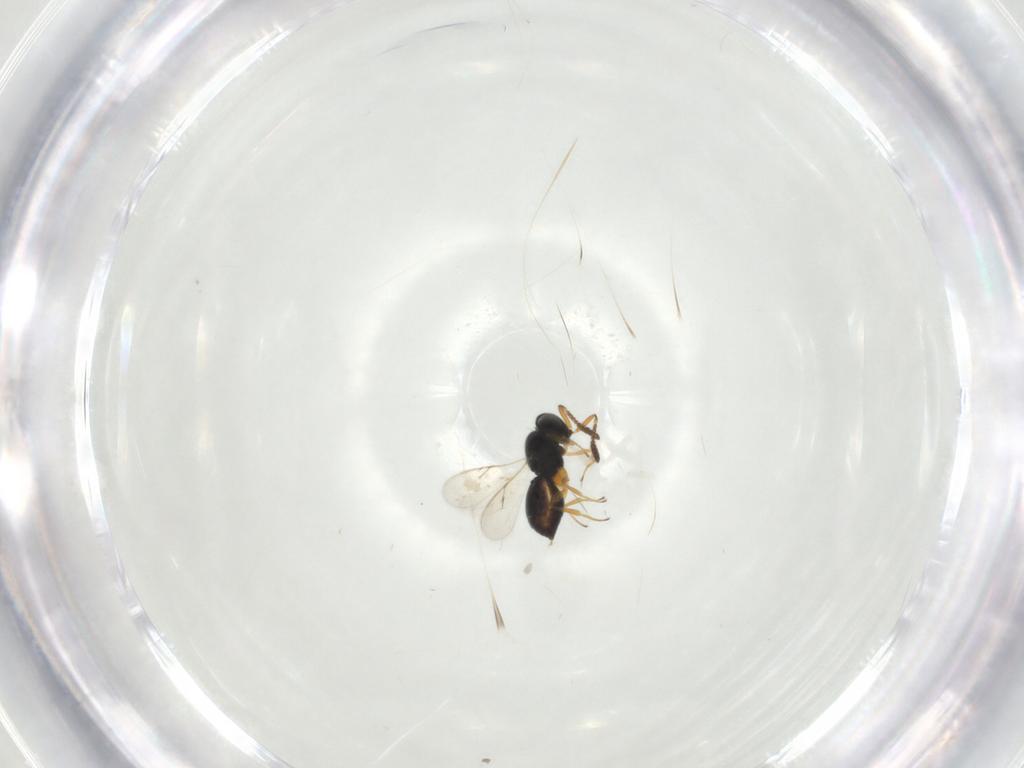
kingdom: Animalia
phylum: Arthropoda
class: Insecta
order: Hymenoptera
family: Scelionidae
